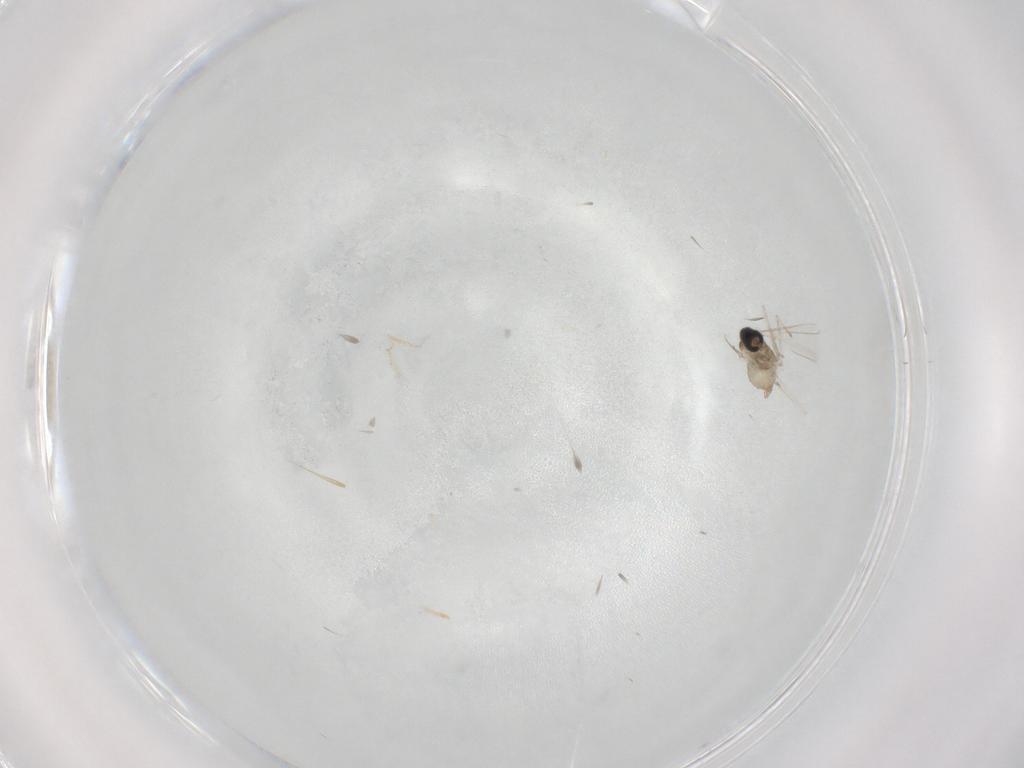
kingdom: Animalia
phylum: Arthropoda
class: Insecta
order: Diptera
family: Cecidomyiidae
